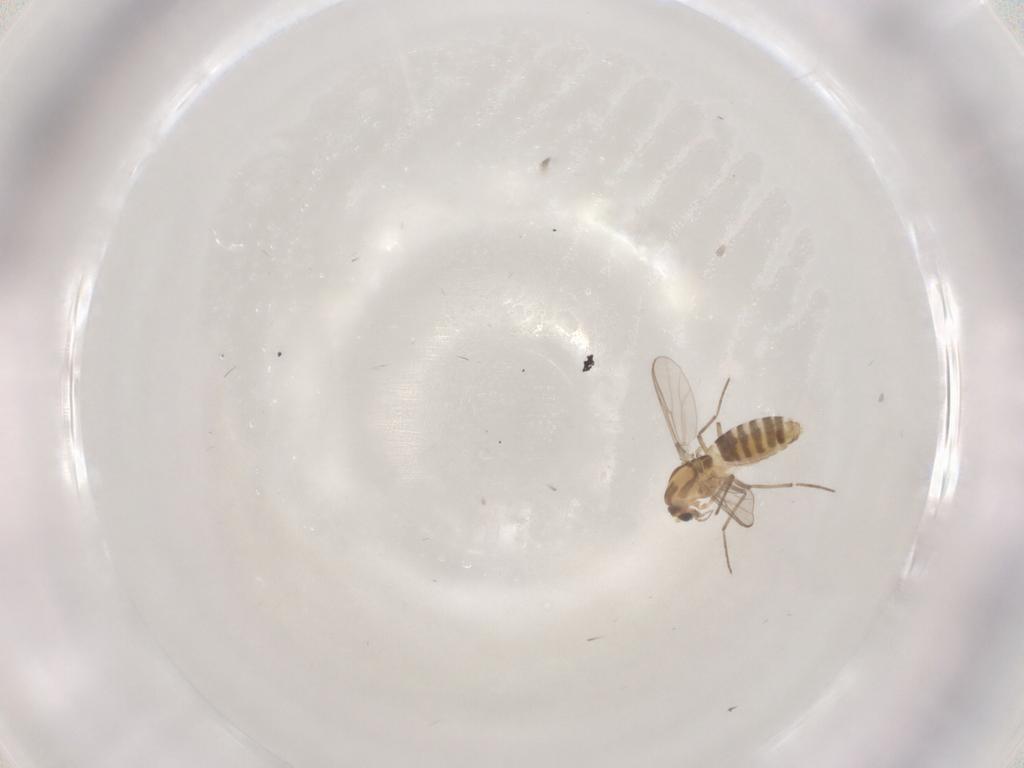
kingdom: Animalia
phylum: Arthropoda
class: Insecta
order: Diptera
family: Chironomidae
